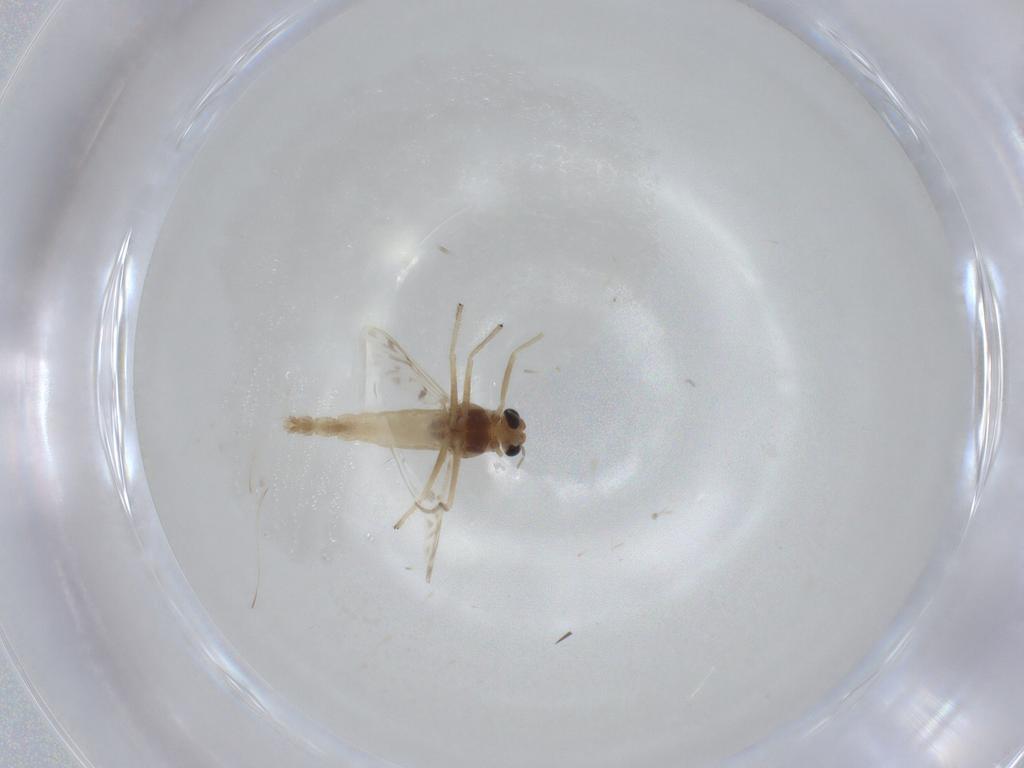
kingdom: Animalia
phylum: Arthropoda
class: Insecta
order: Diptera
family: Chironomidae
